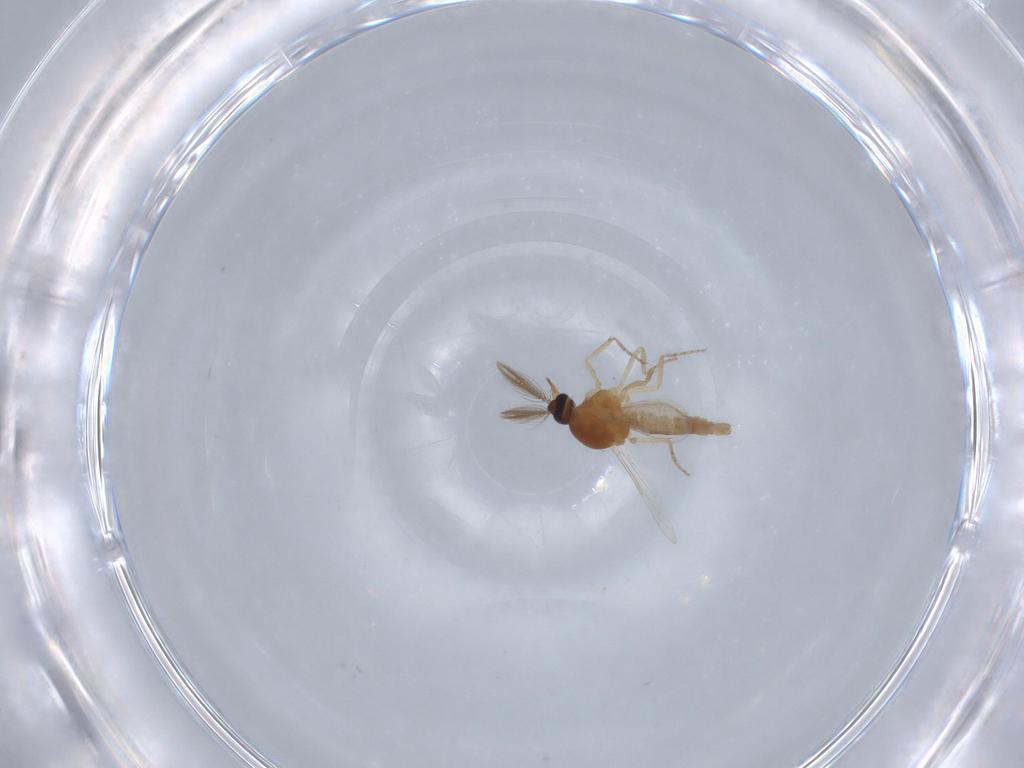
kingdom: Animalia
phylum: Arthropoda
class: Insecta
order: Diptera
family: Ceratopogonidae
